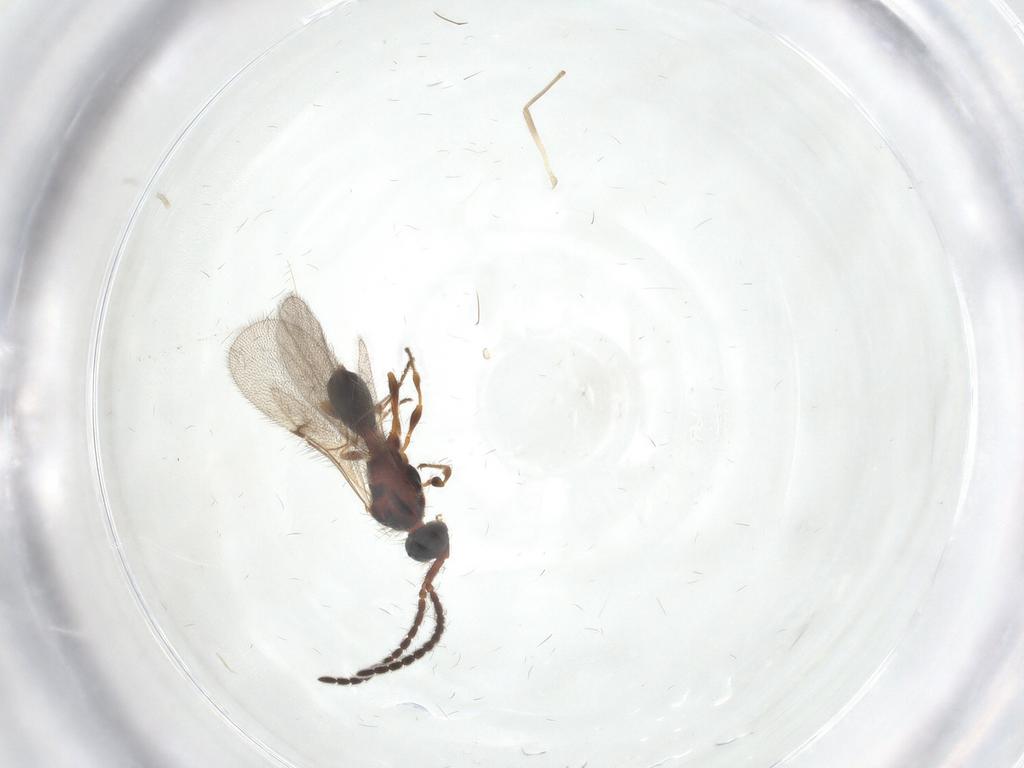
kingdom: Animalia
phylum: Arthropoda
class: Insecta
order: Hymenoptera
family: Diapriidae
